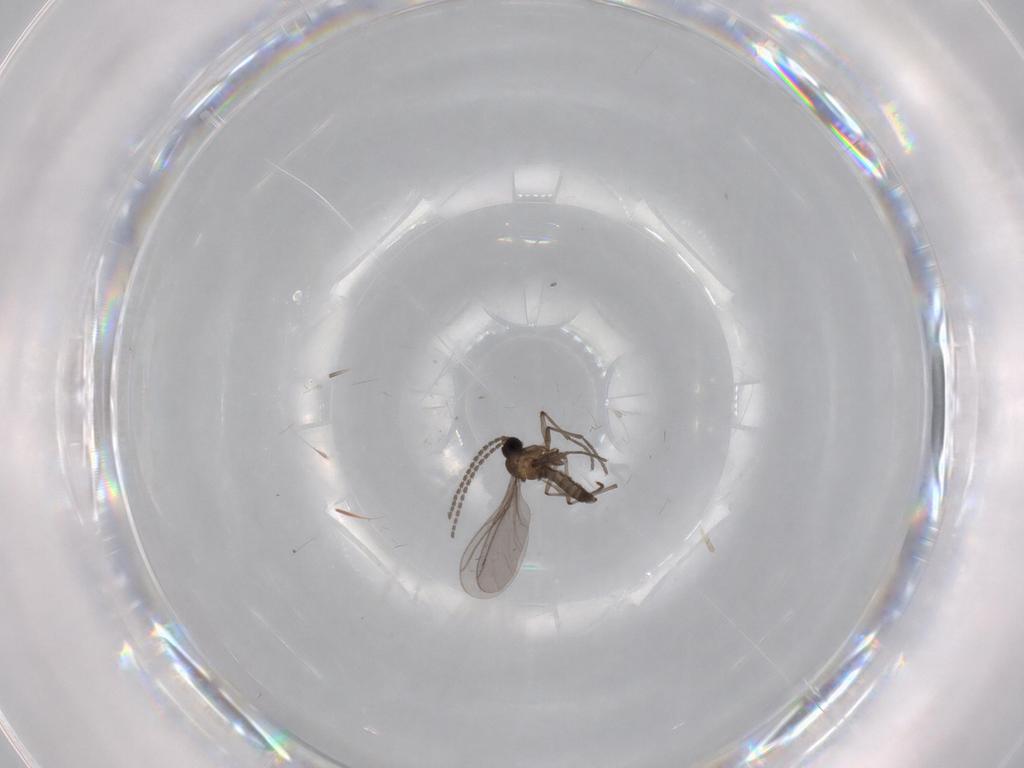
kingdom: Animalia
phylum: Arthropoda
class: Insecta
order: Diptera
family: Sciaridae
